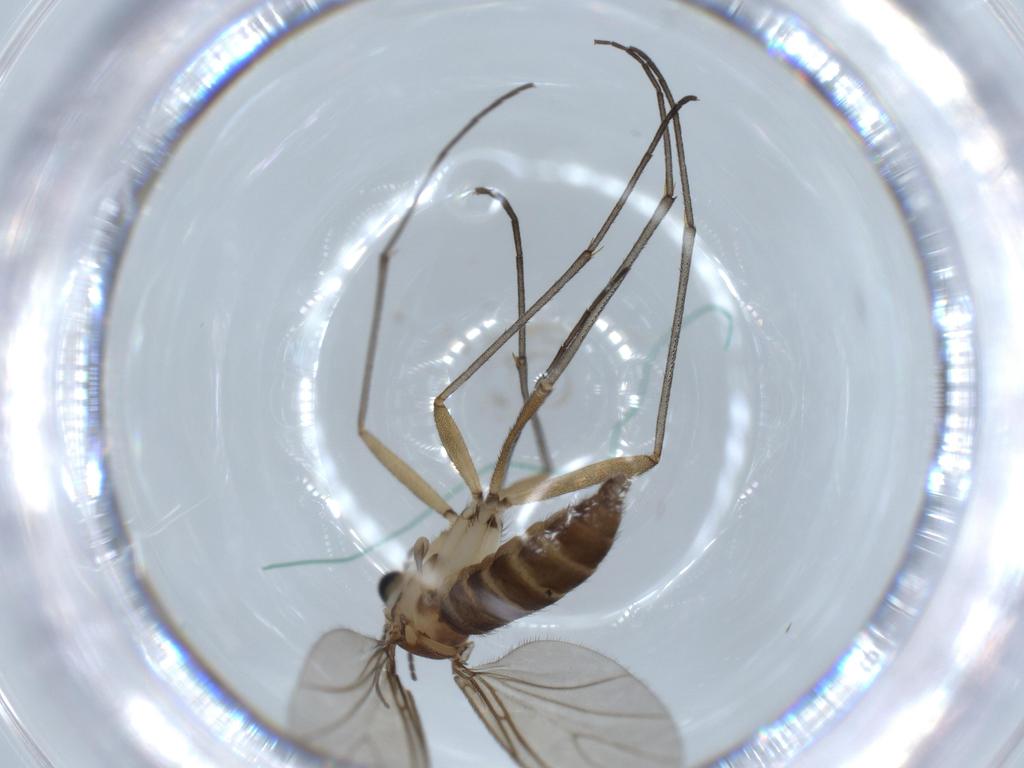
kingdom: Animalia
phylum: Arthropoda
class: Insecta
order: Diptera
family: Sciaridae
